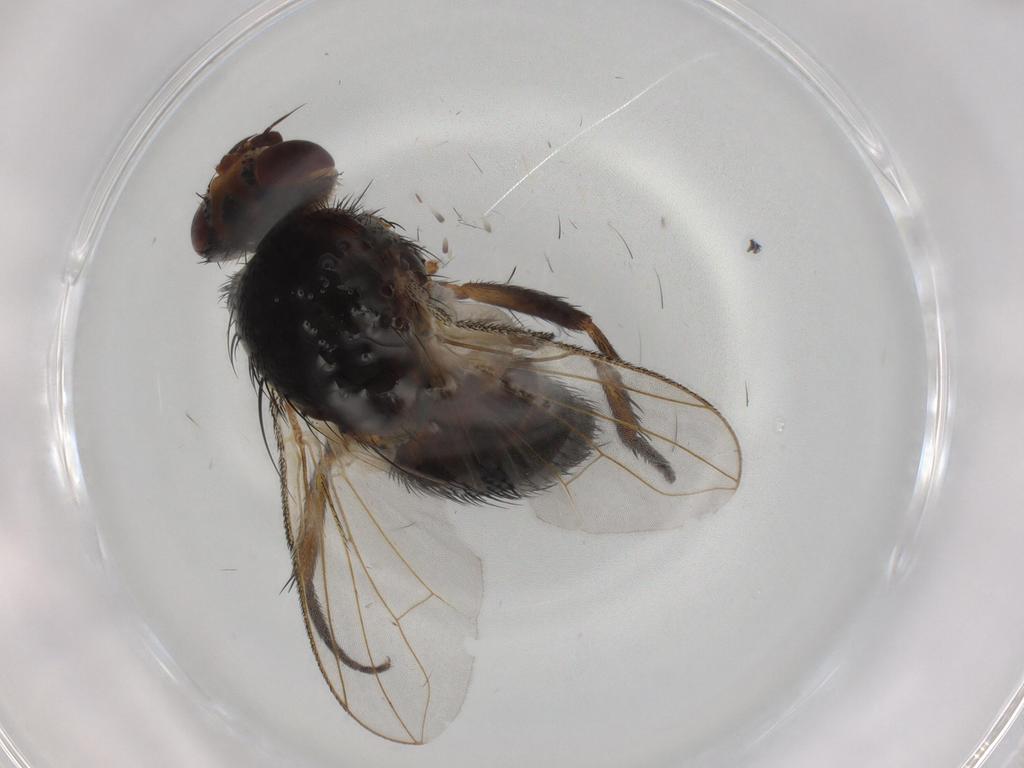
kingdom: Animalia
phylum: Arthropoda
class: Insecta
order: Diptera
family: Tachinidae
